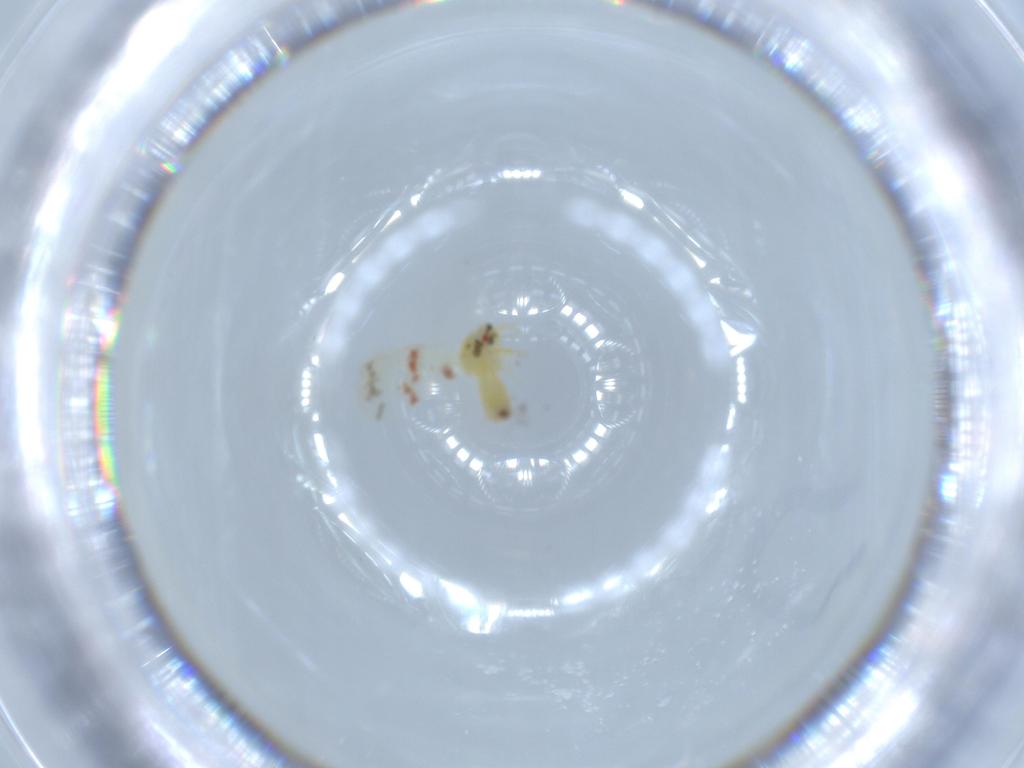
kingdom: Animalia
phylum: Arthropoda
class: Insecta
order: Hemiptera
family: Aleyrodidae
